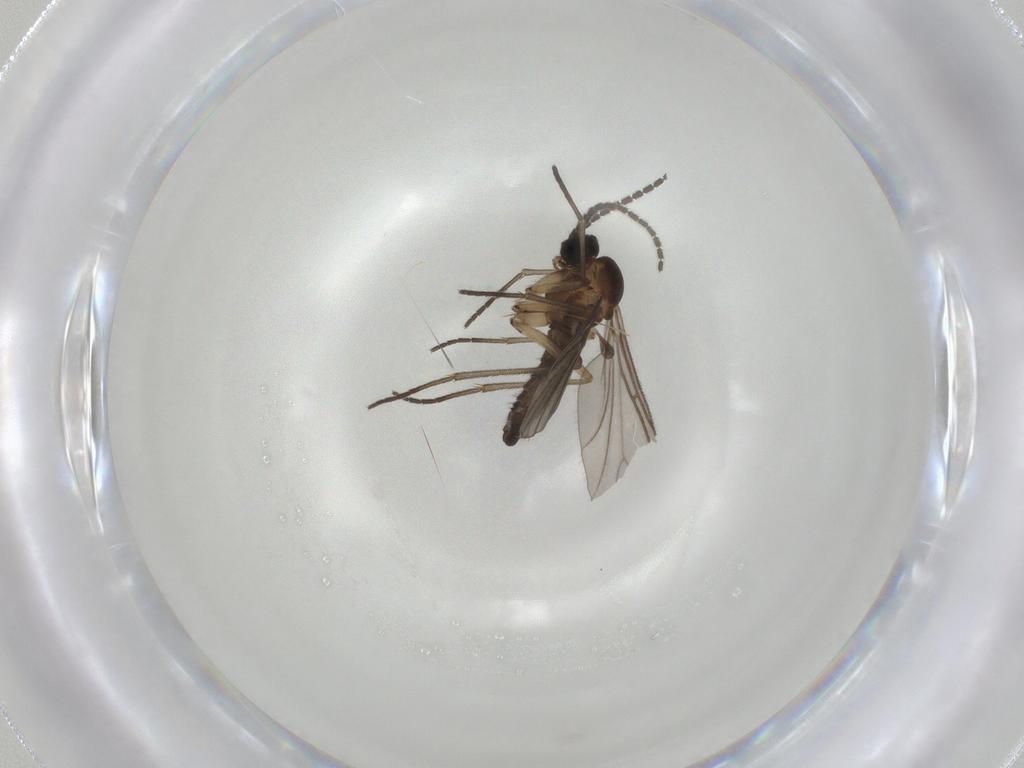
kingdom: Animalia
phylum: Arthropoda
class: Insecta
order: Diptera
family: Sciaridae
